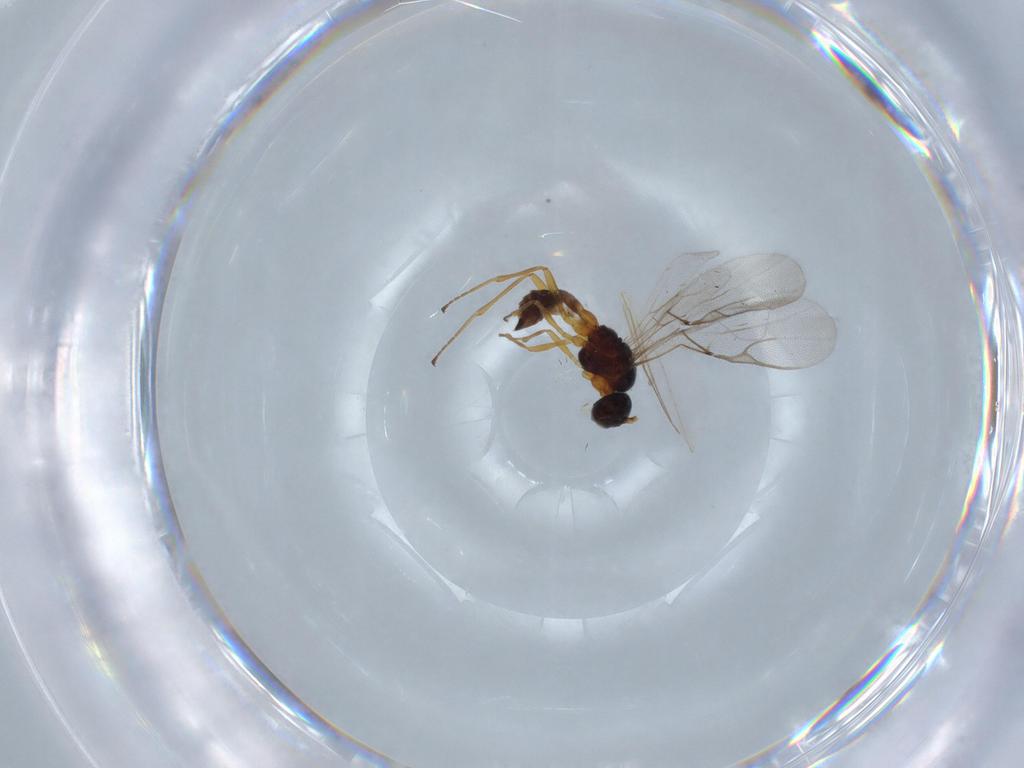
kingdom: Animalia
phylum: Arthropoda
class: Insecta
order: Hymenoptera
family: Braconidae
